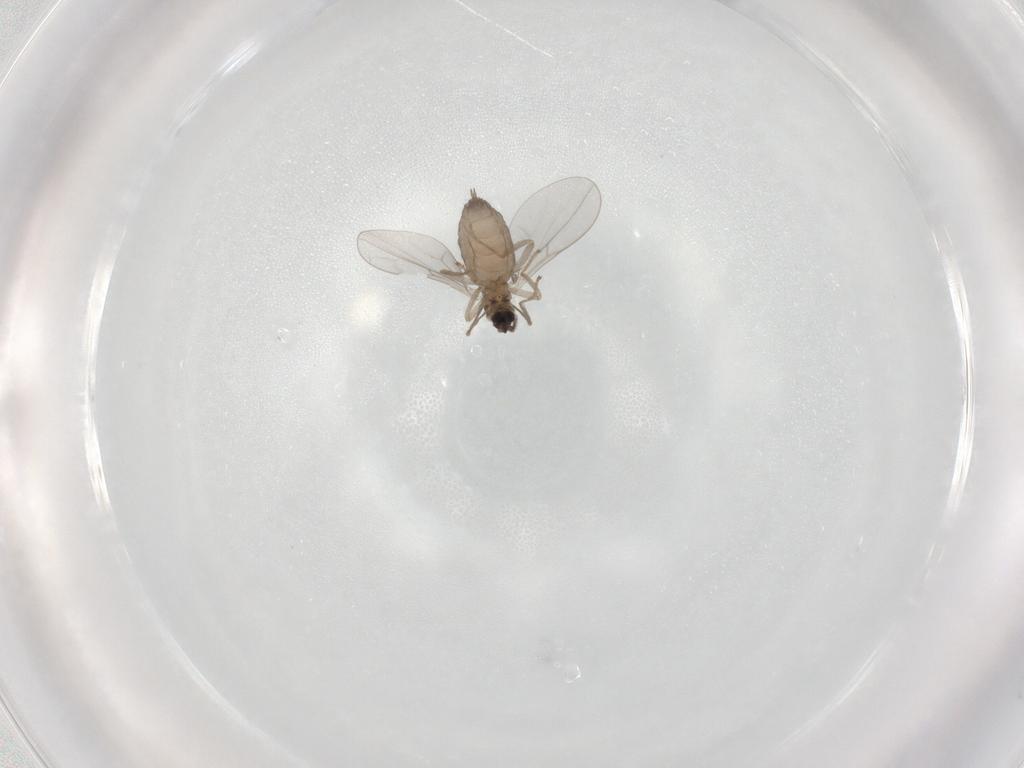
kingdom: Animalia
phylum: Arthropoda
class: Insecta
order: Diptera
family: Cecidomyiidae
